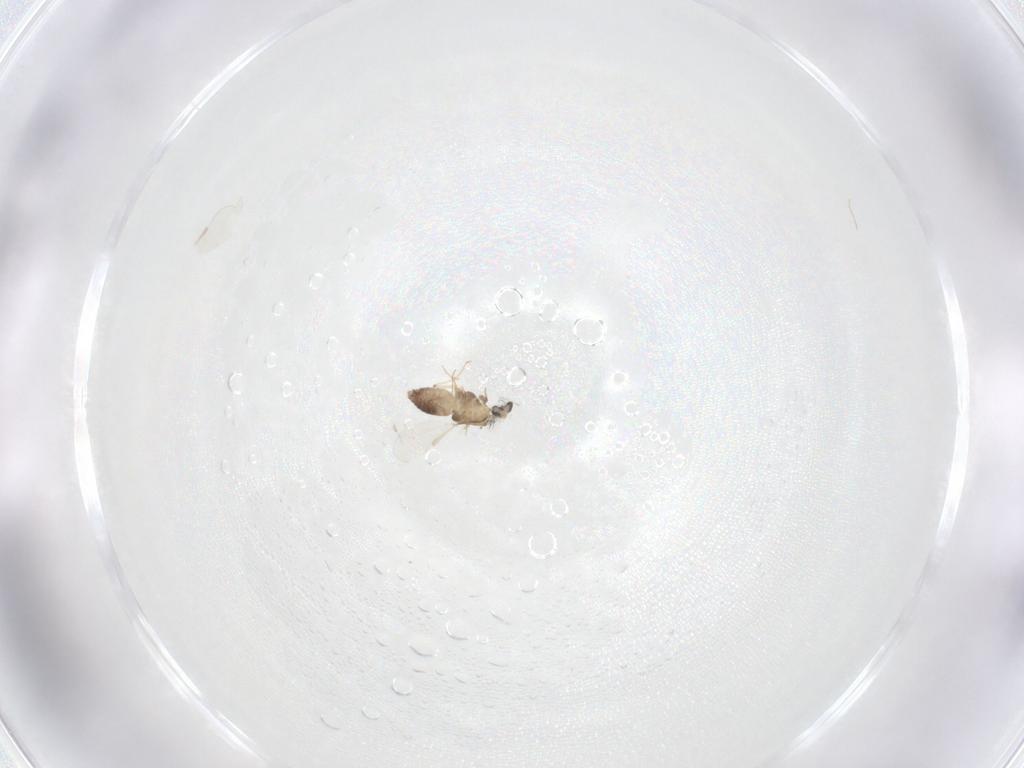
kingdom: Animalia
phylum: Arthropoda
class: Insecta
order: Diptera
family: Chironomidae
